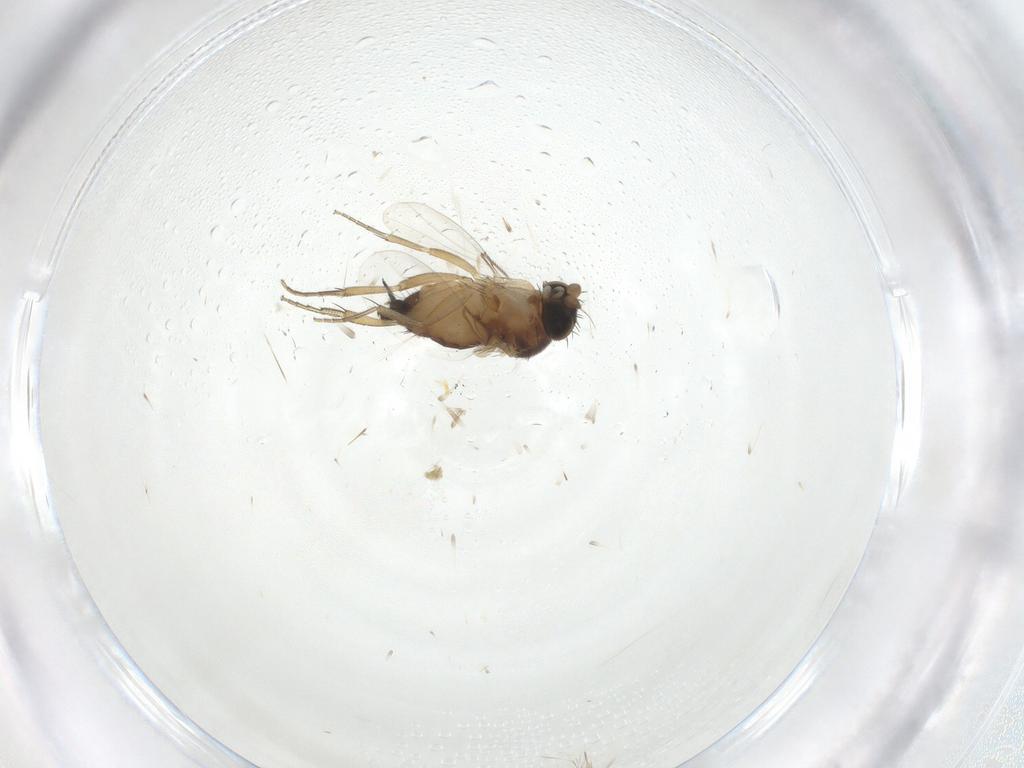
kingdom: Animalia
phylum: Arthropoda
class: Insecta
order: Diptera
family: Phoridae
